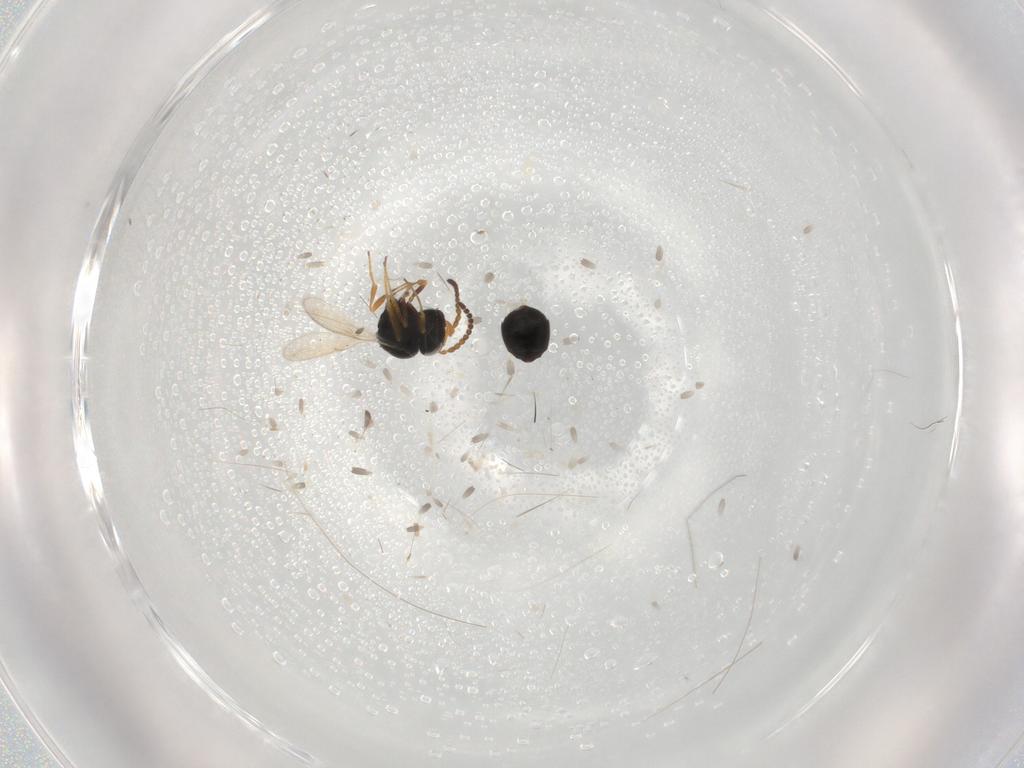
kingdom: Animalia
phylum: Arthropoda
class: Insecta
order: Hymenoptera
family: Scelionidae
